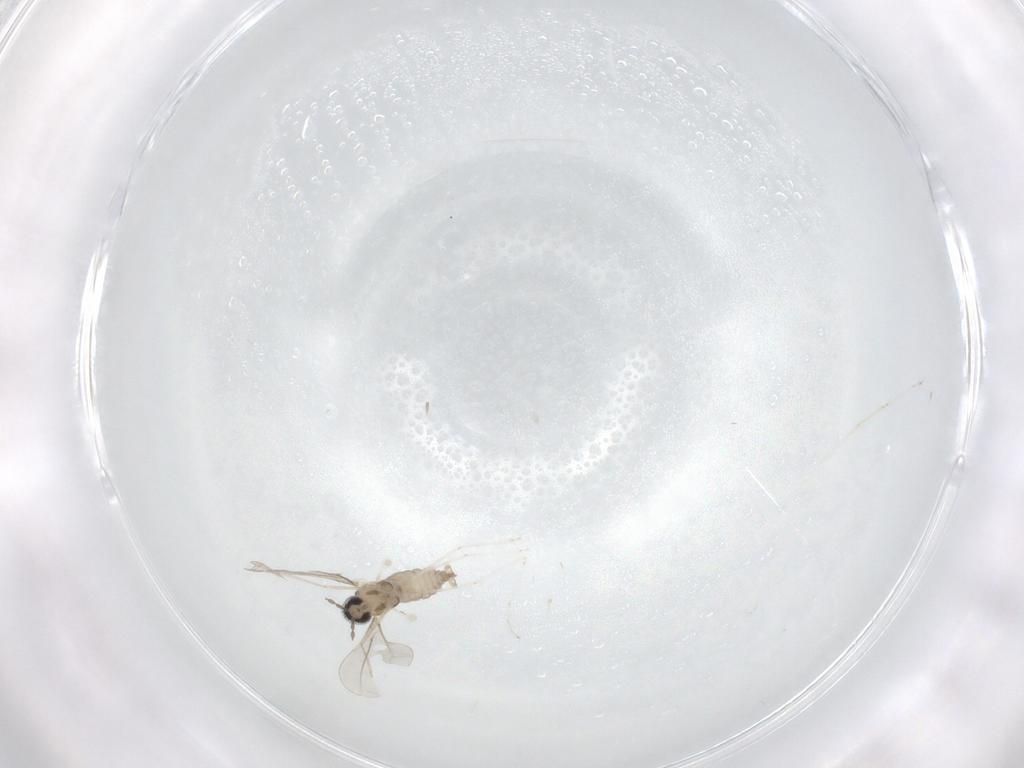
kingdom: Animalia
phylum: Arthropoda
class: Insecta
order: Diptera
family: Cecidomyiidae
